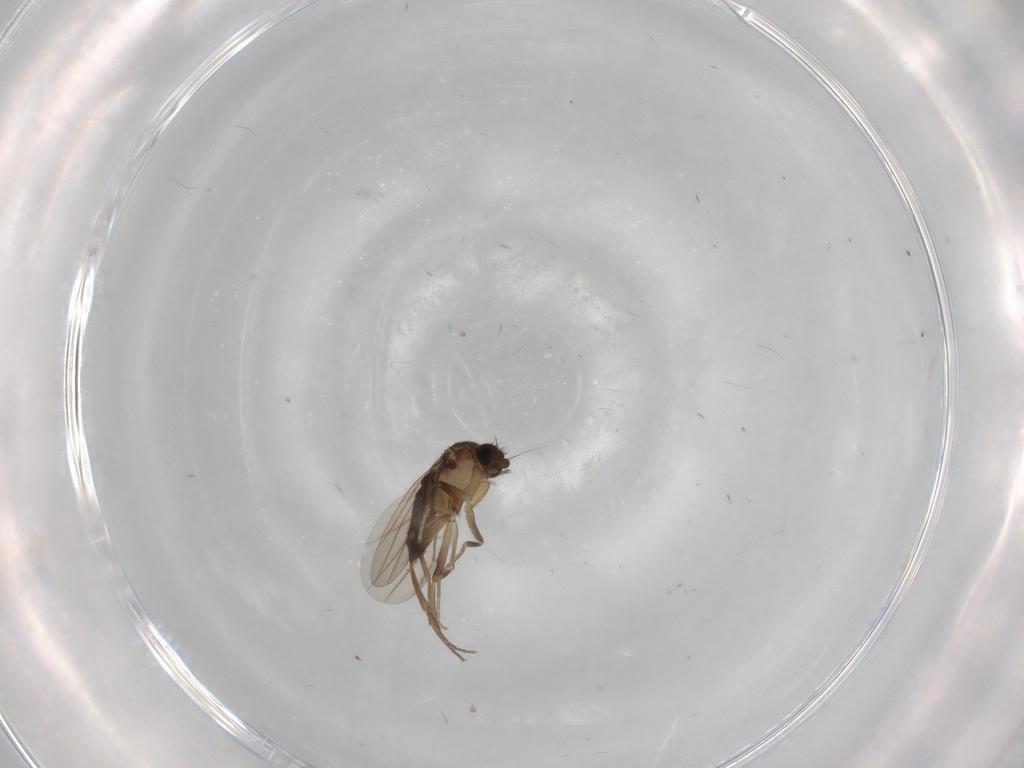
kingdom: Animalia
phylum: Arthropoda
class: Insecta
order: Diptera
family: Phoridae
